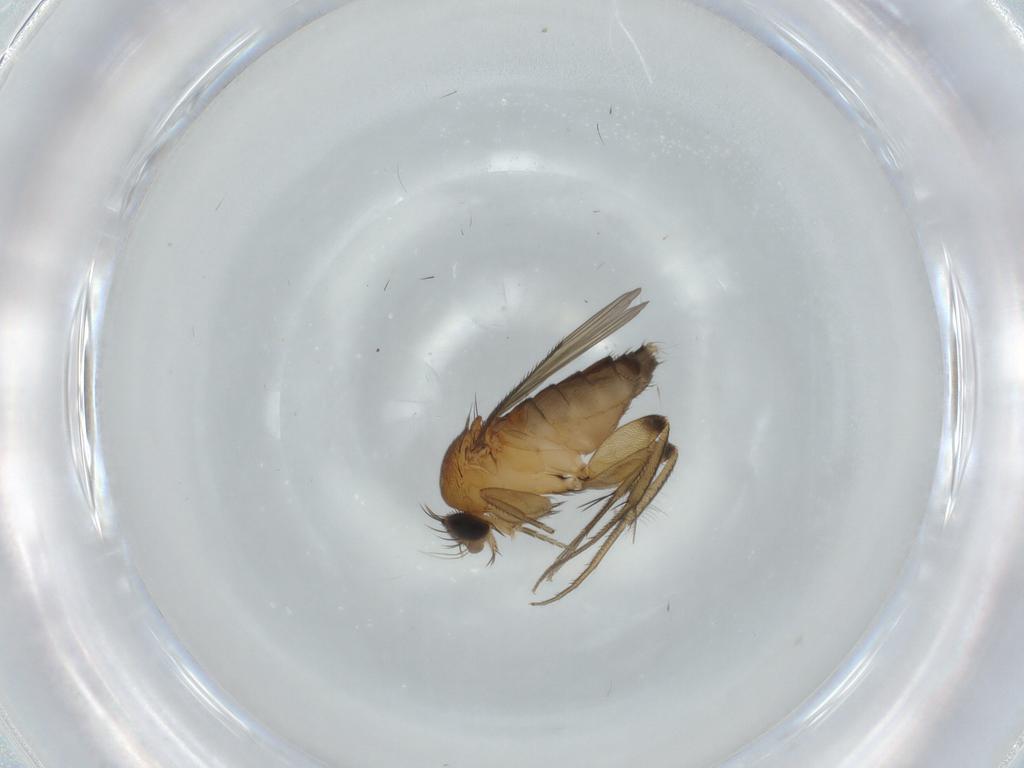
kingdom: Animalia
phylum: Arthropoda
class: Insecta
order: Diptera
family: Phoridae
